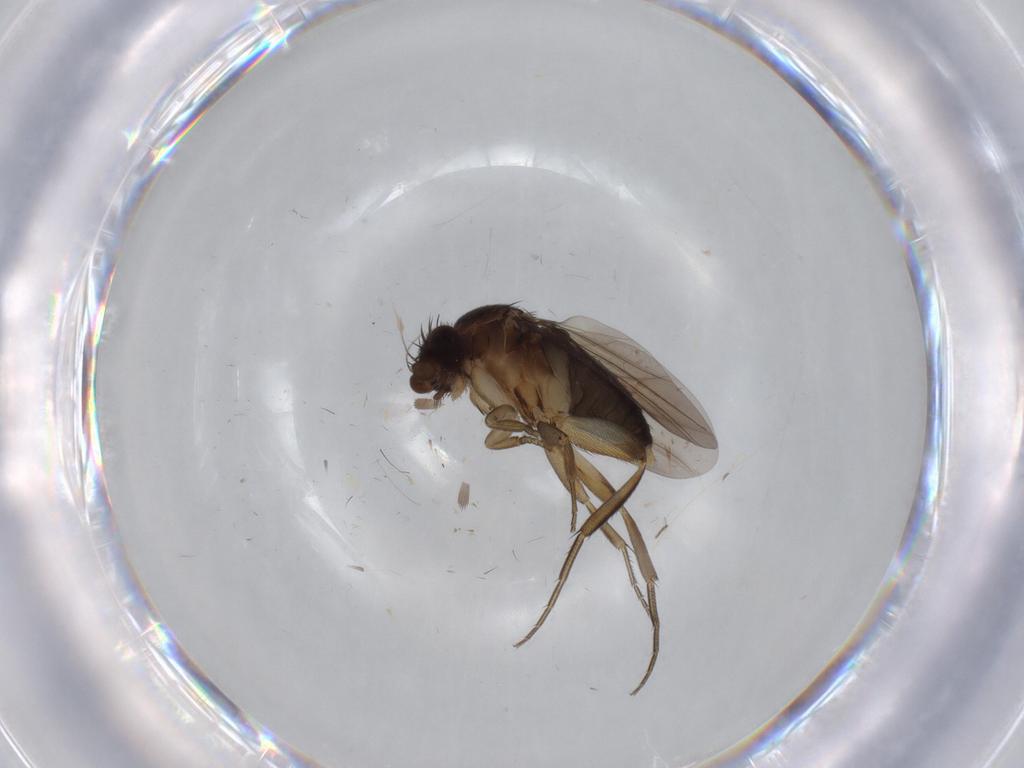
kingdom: Animalia
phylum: Arthropoda
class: Insecta
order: Diptera
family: Phoridae
